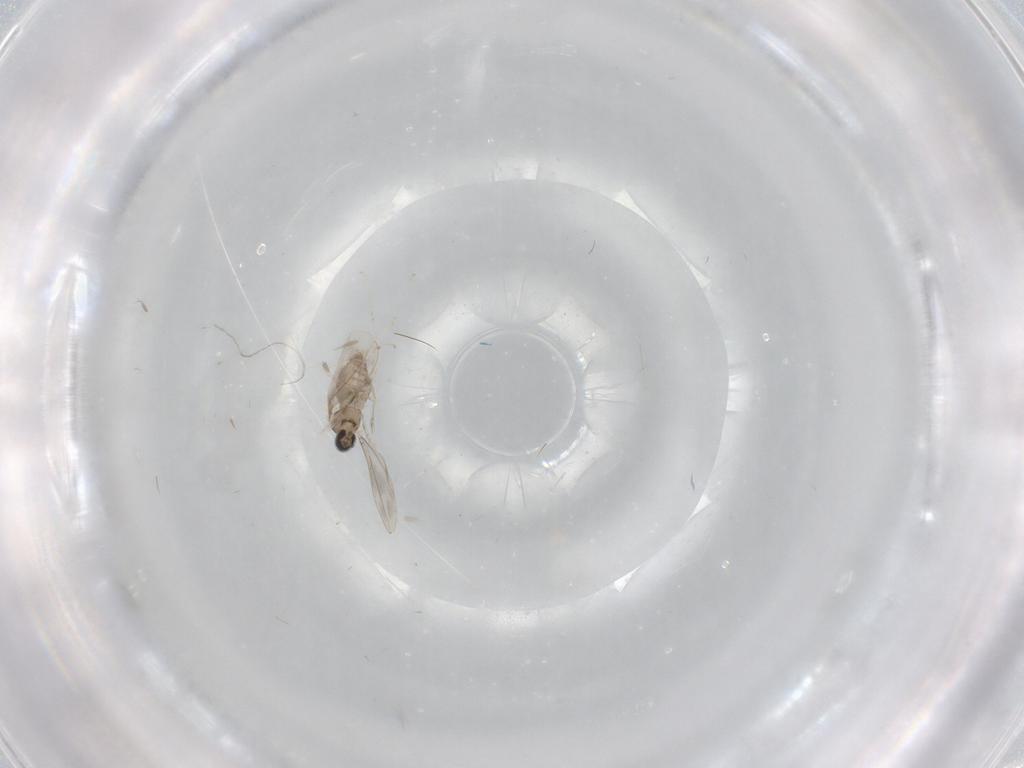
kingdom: Animalia
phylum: Arthropoda
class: Insecta
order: Diptera
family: Cecidomyiidae
